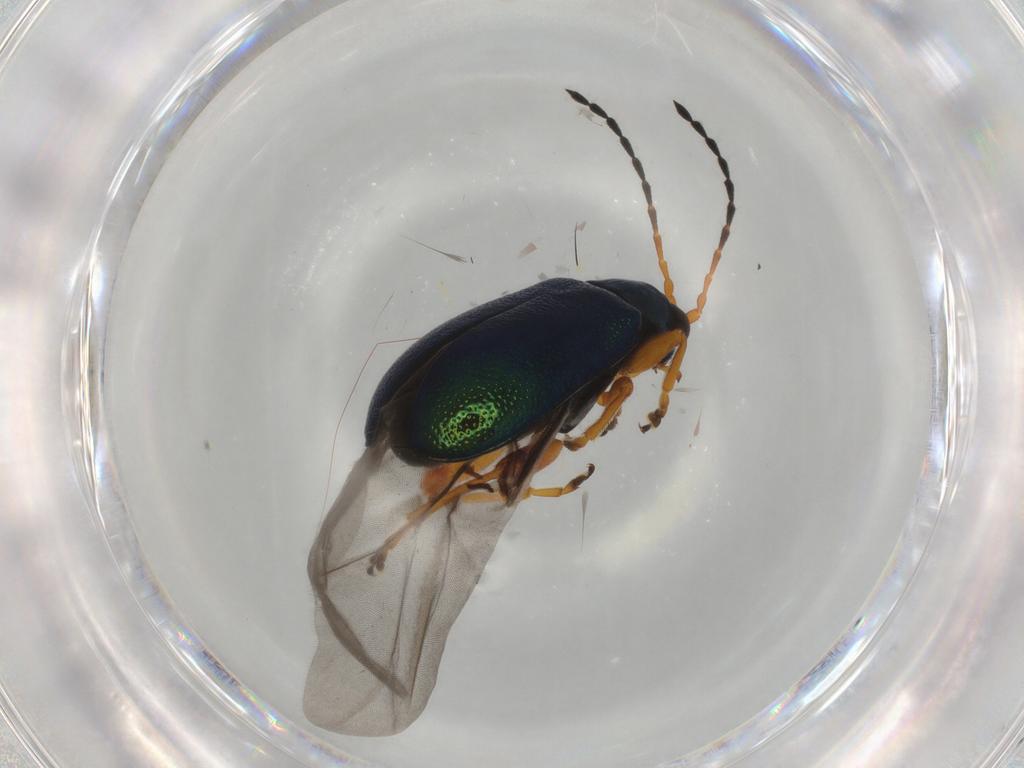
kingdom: Animalia
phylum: Arthropoda
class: Insecta
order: Coleoptera
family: Chrysomelidae
